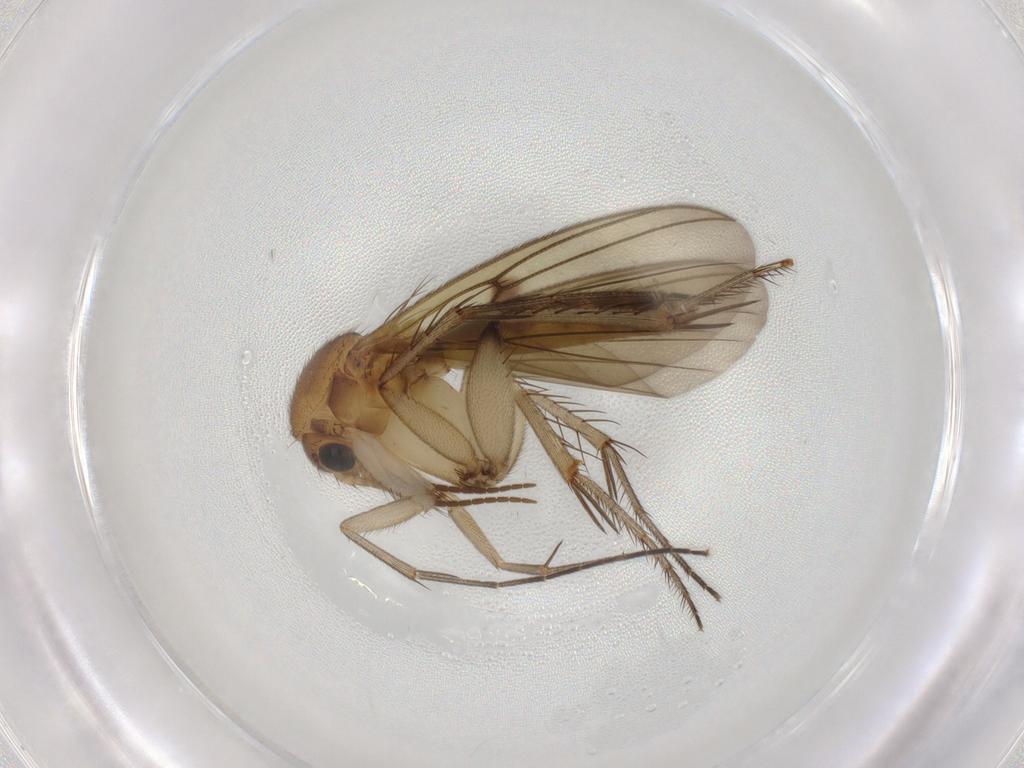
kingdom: Animalia
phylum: Arthropoda
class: Insecta
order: Diptera
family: Mycetophilidae
